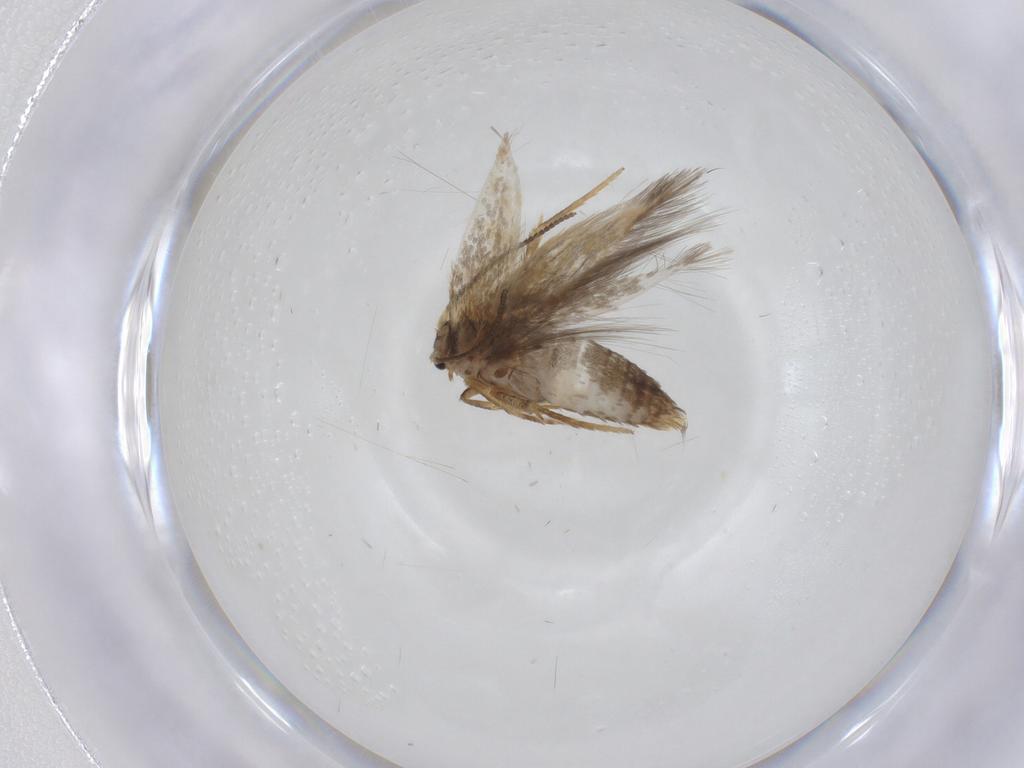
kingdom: Animalia
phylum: Arthropoda
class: Insecta
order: Lepidoptera
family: Nepticulidae
